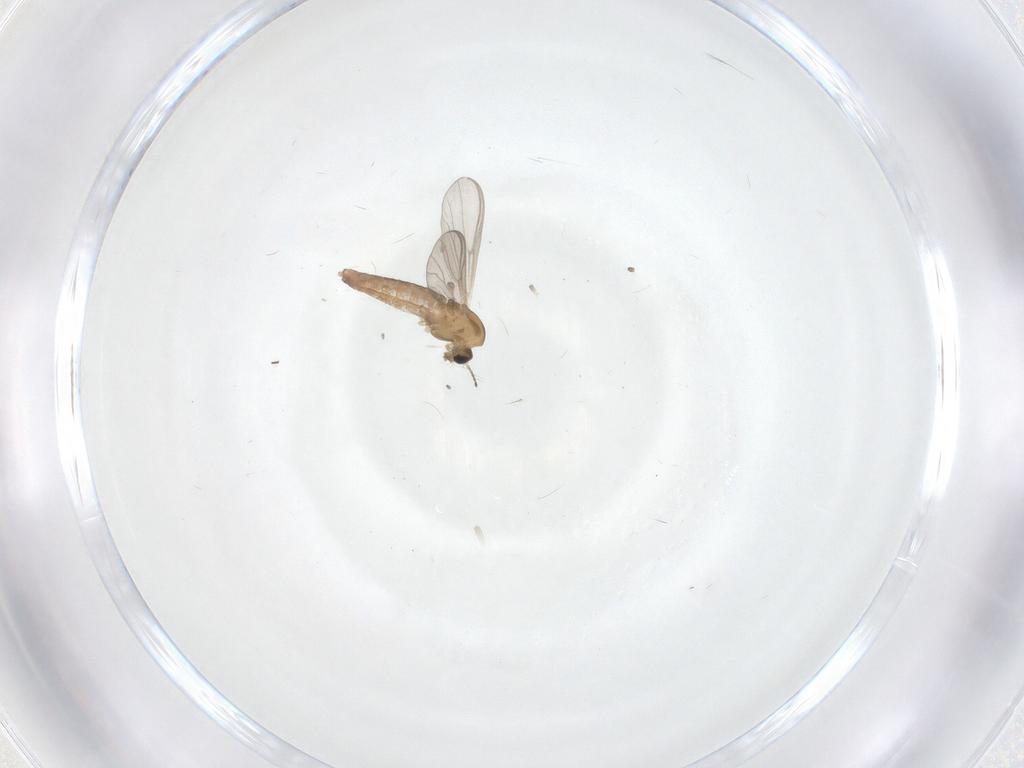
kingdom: Animalia
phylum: Arthropoda
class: Insecta
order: Diptera
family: Chironomidae
